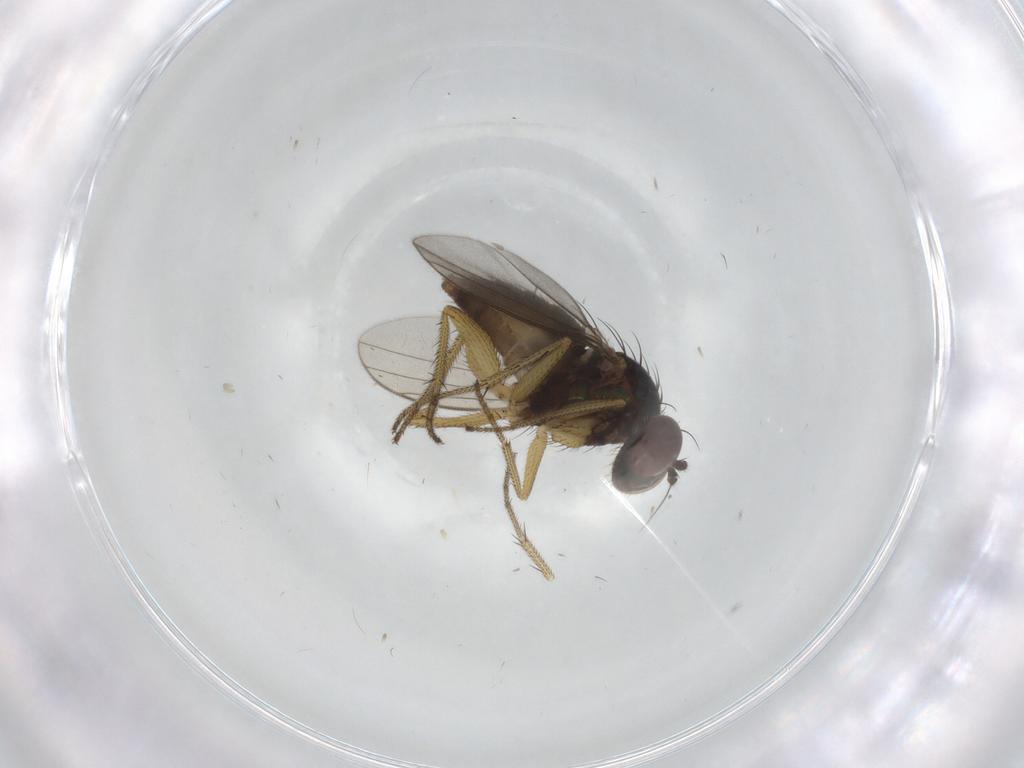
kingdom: Animalia
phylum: Arthropoda
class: Insecta
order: Diptera
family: Dolichopodidae
